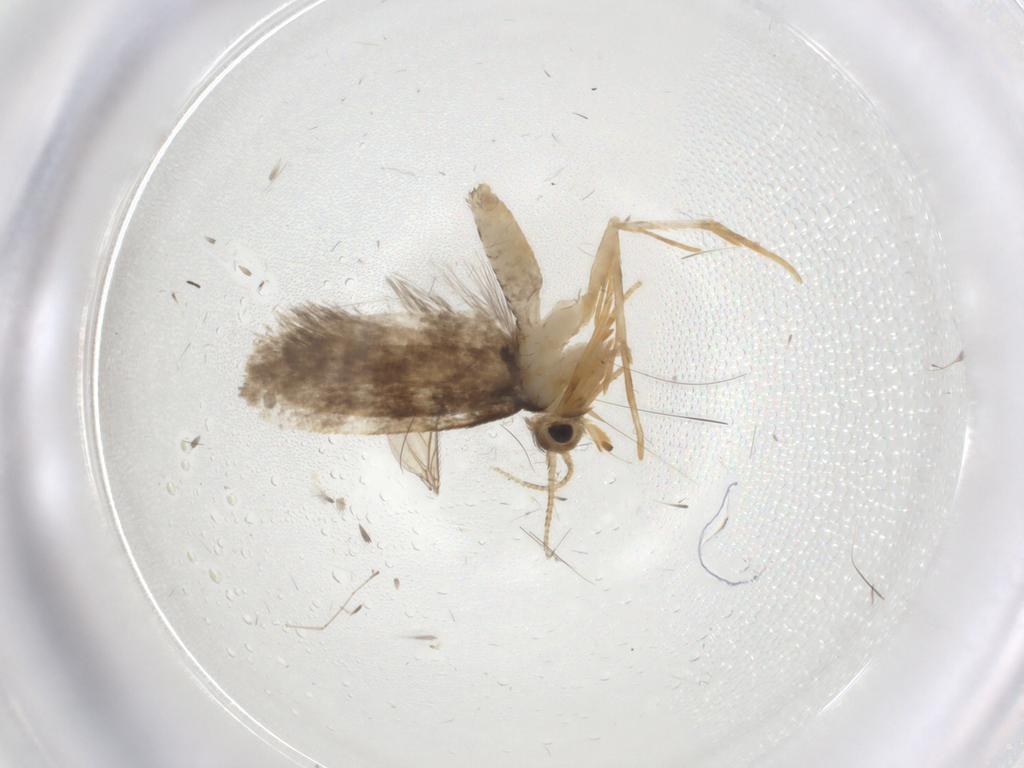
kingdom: Animalia
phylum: Arthropoda
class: Insecta
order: Lepidoptera
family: Psychidae
